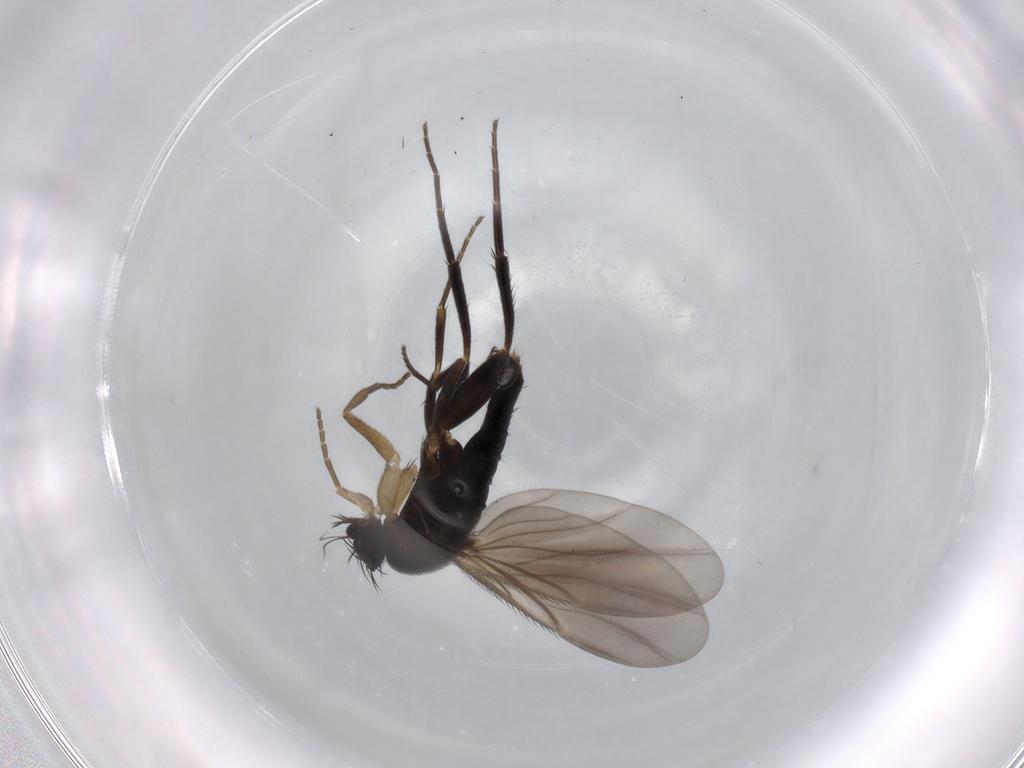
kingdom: Animalia
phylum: Arthropoda
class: Insecta
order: Diptera
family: Phoridae
